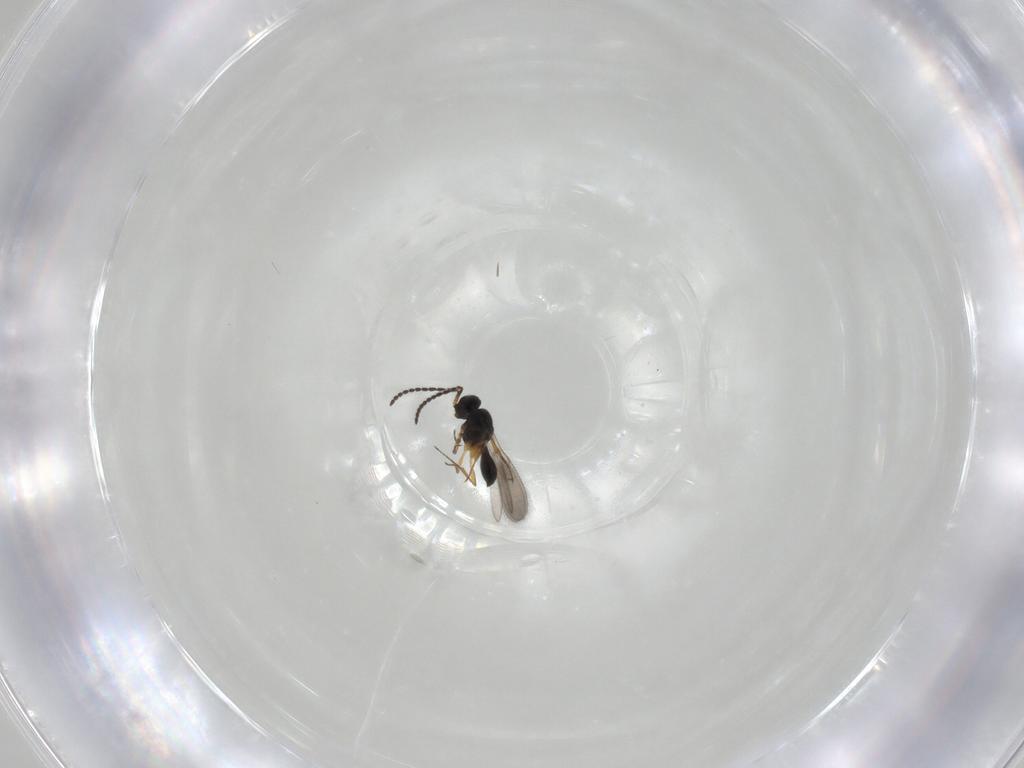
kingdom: Animalia
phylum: Arthropoda
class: Insecta
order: Hymenoptera
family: Scelionidae
